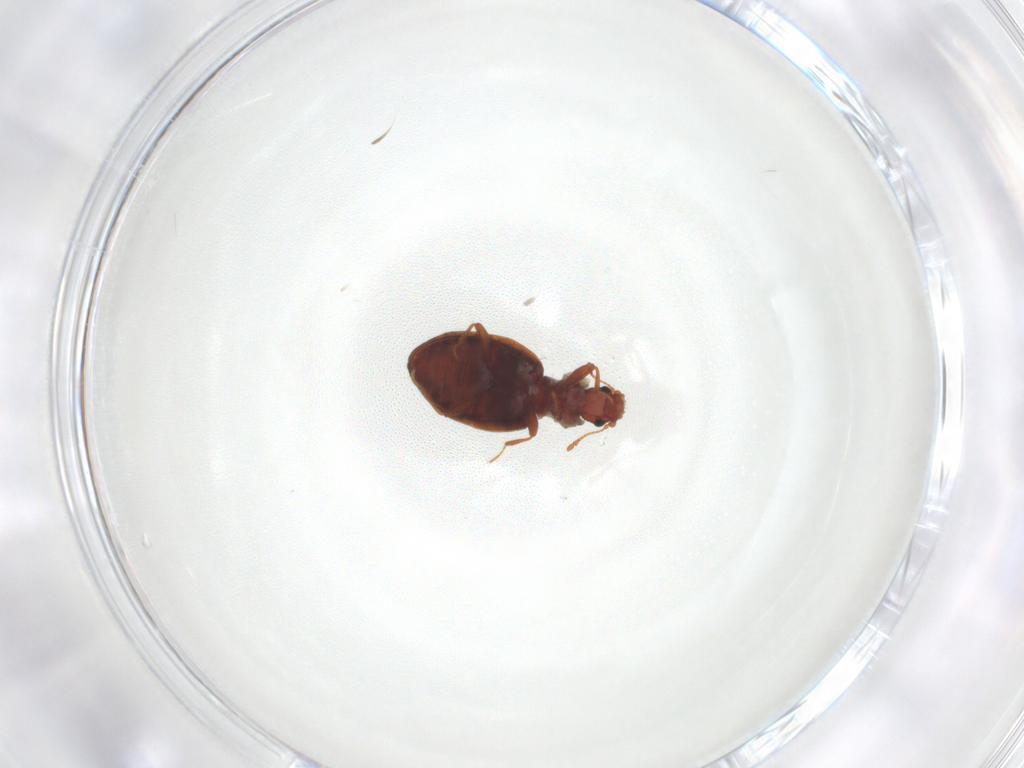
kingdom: Animalia
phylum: Arthropoda
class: Insecta
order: Coleoptera
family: Latridiidae
